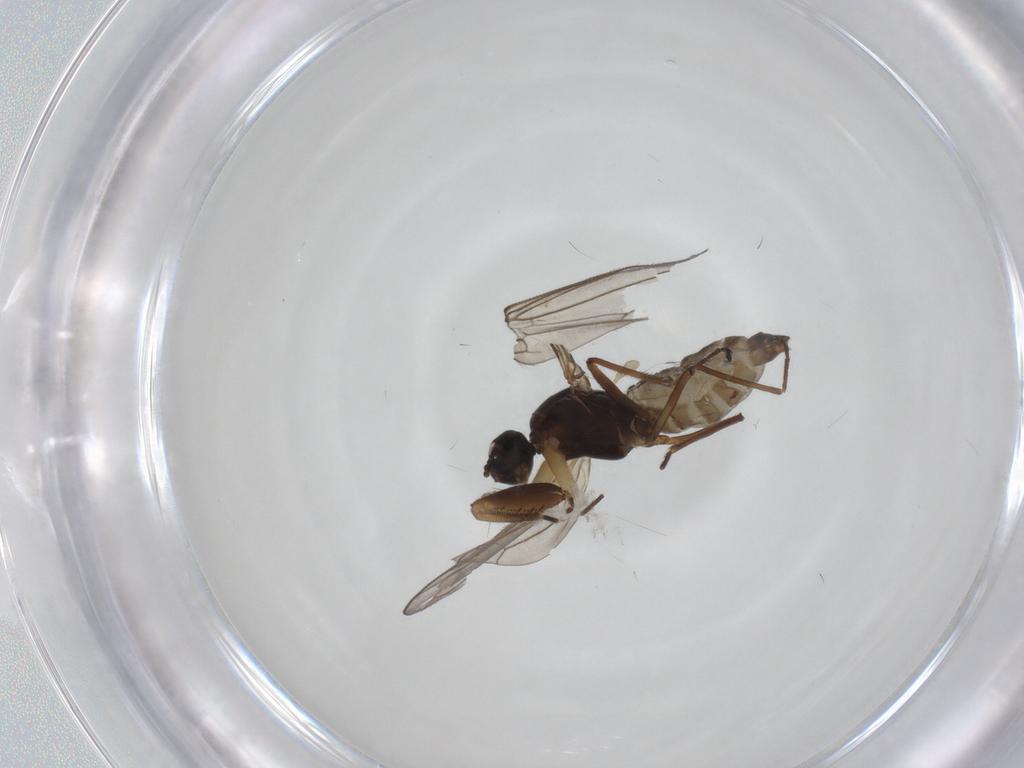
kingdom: Animalia
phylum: Arthropoda
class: Insecta
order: Diptera
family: Empididae
